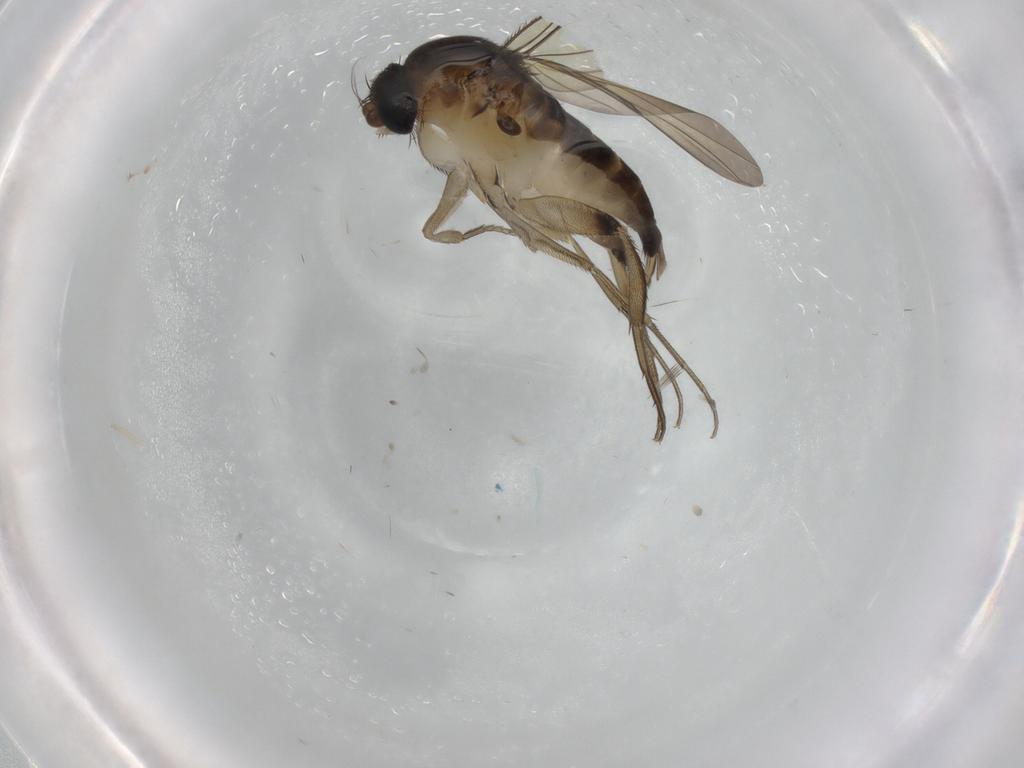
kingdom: Animalia
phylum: Arthropoda
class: Insecta
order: Diptera
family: Phoridae
